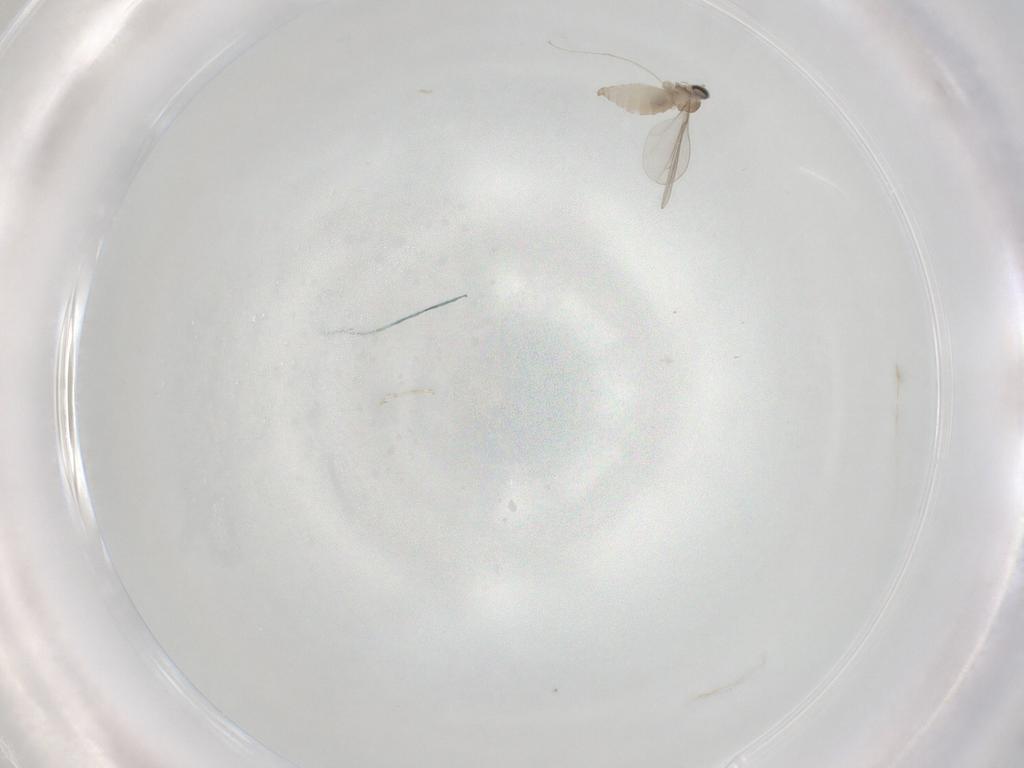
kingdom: Animalia
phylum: Arthropoda
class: Insecta
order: Diptera
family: Cecidomyiidae
